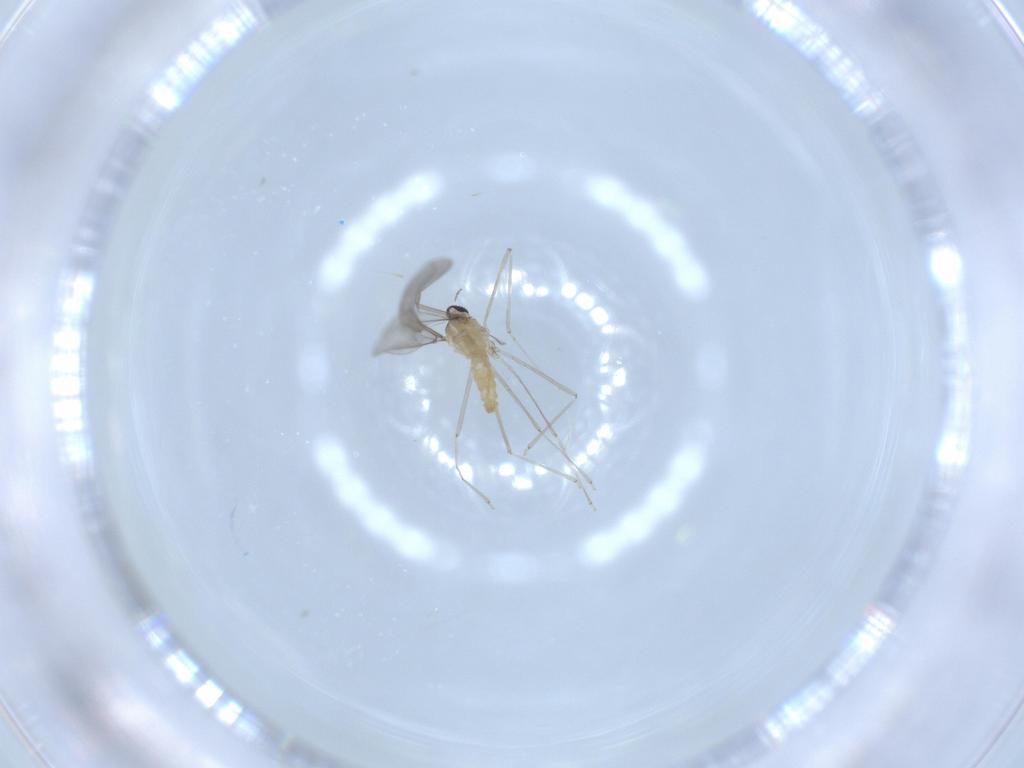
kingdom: Animalia
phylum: Arthropoda
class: Insecta
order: Diptera
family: Cecidomyiidae
